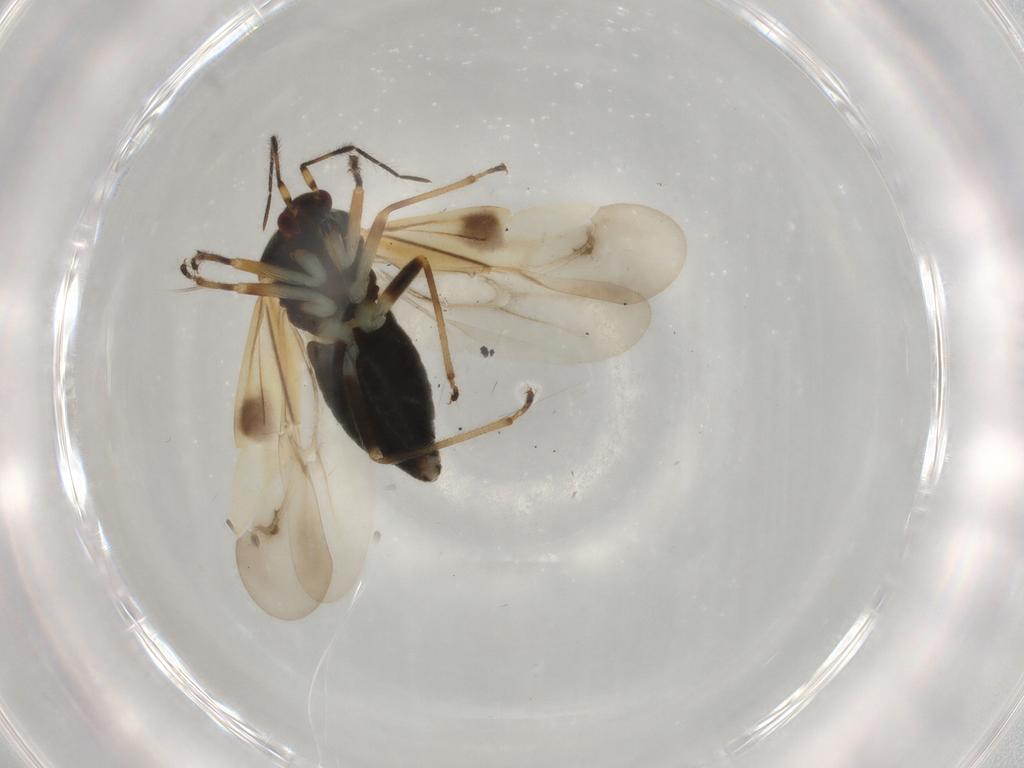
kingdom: Animalia
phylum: Arthropoda
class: Insecta
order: Hemiptera
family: Miridae
